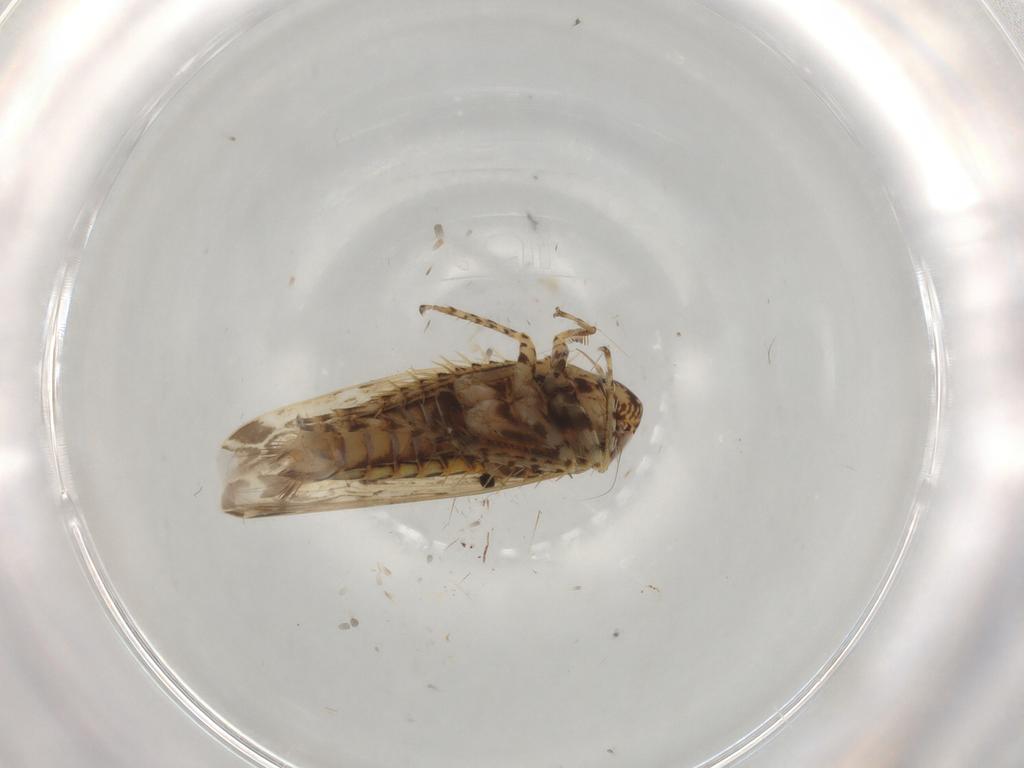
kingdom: Animalia
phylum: Arthropoda
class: Insecta
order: Hemiptera
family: Cicadellidae
